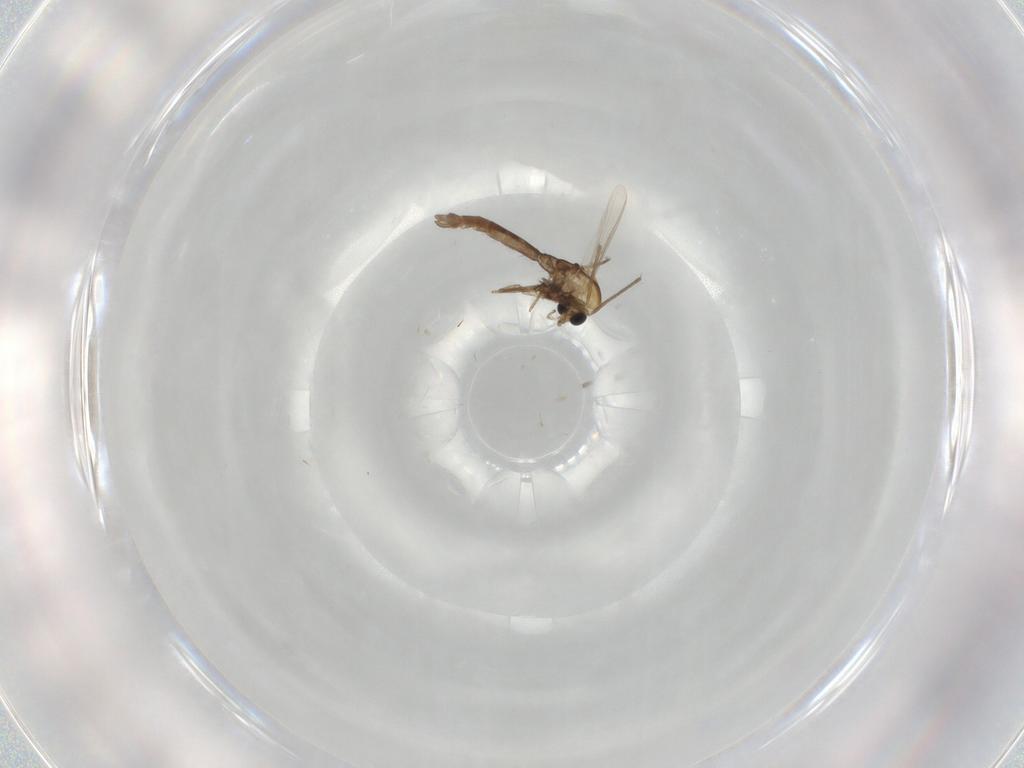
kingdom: Animalia
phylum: Arthropoda
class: Insecta
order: Diptera
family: Chironomidae
